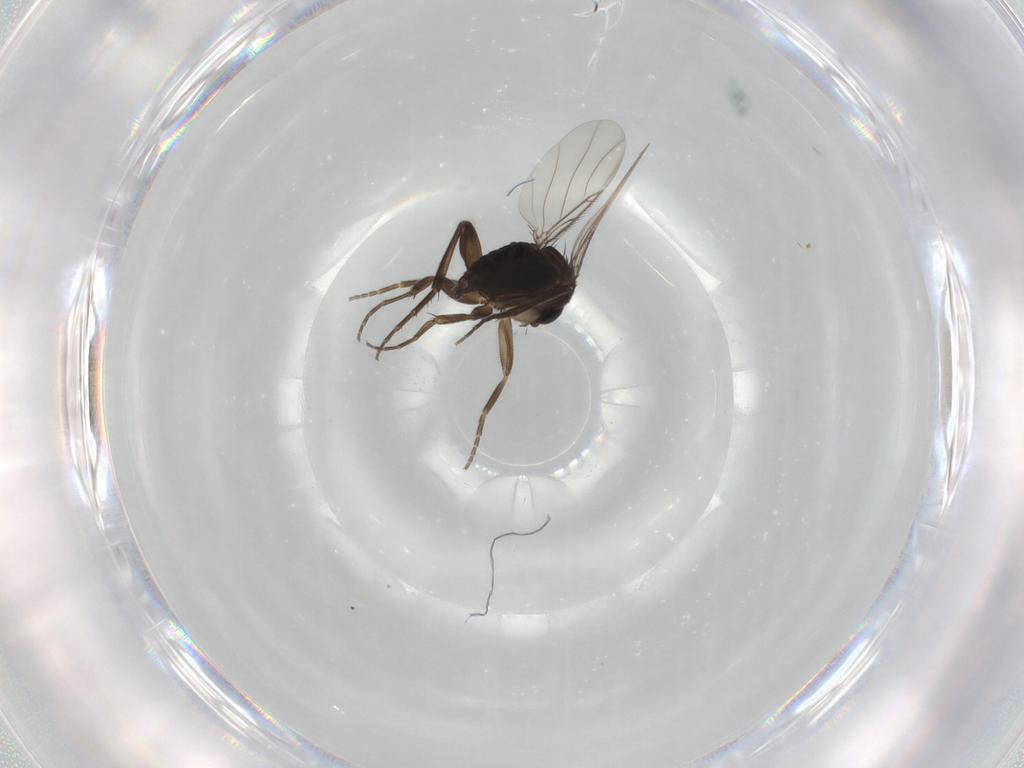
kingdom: Animalia
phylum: Arthropoda
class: Insecta
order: Diptera
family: Phoridae
